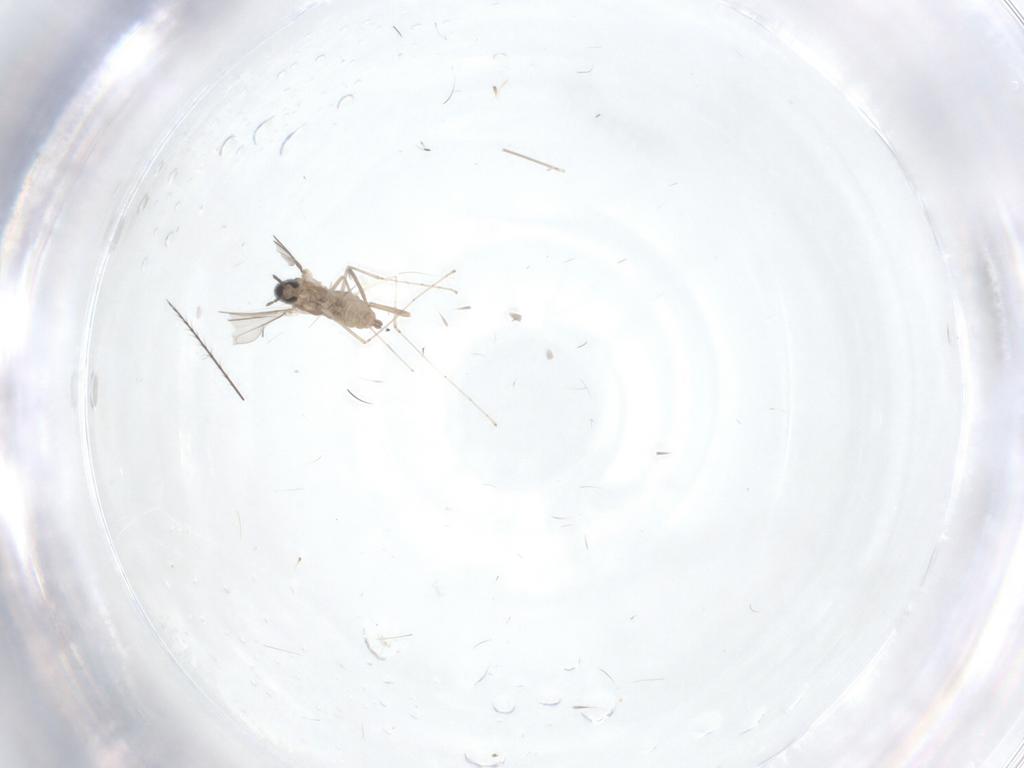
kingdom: Animalia
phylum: Arthropoda
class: Insecta
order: Diptera
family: Cecidomyiidae
